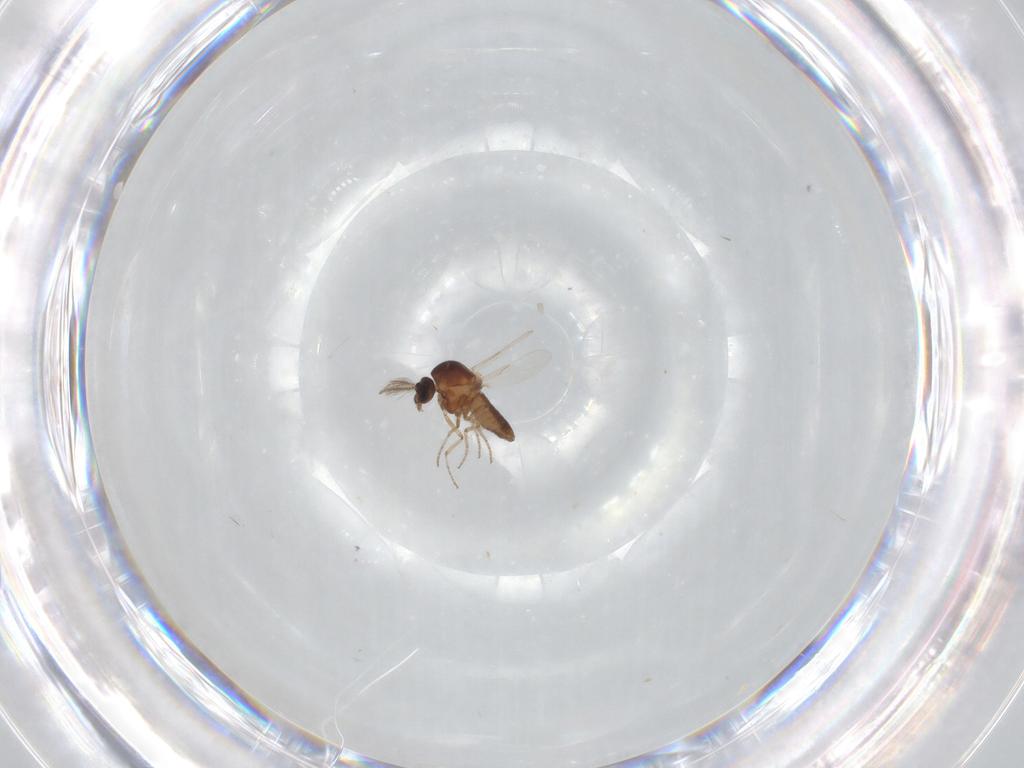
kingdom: Animalia
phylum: Arthropoda
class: Insecta
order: Diptera
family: Ceratopogonidae
